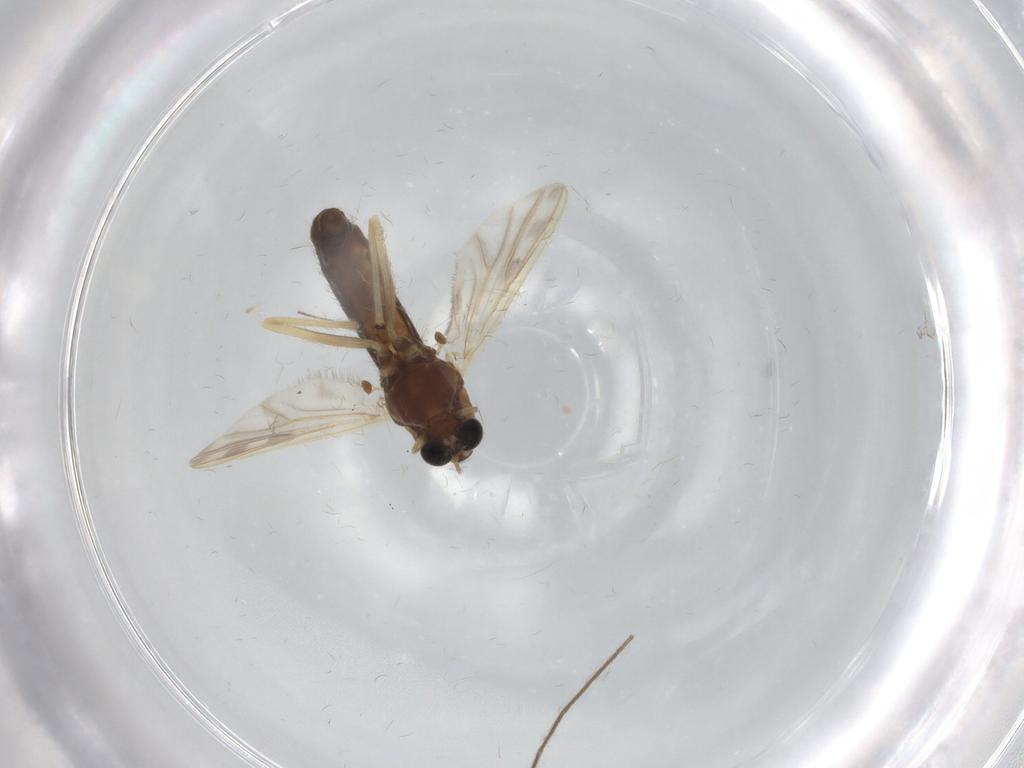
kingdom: Animalia
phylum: Arthropoda
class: Insecta
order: Diptera
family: Chironomidae
